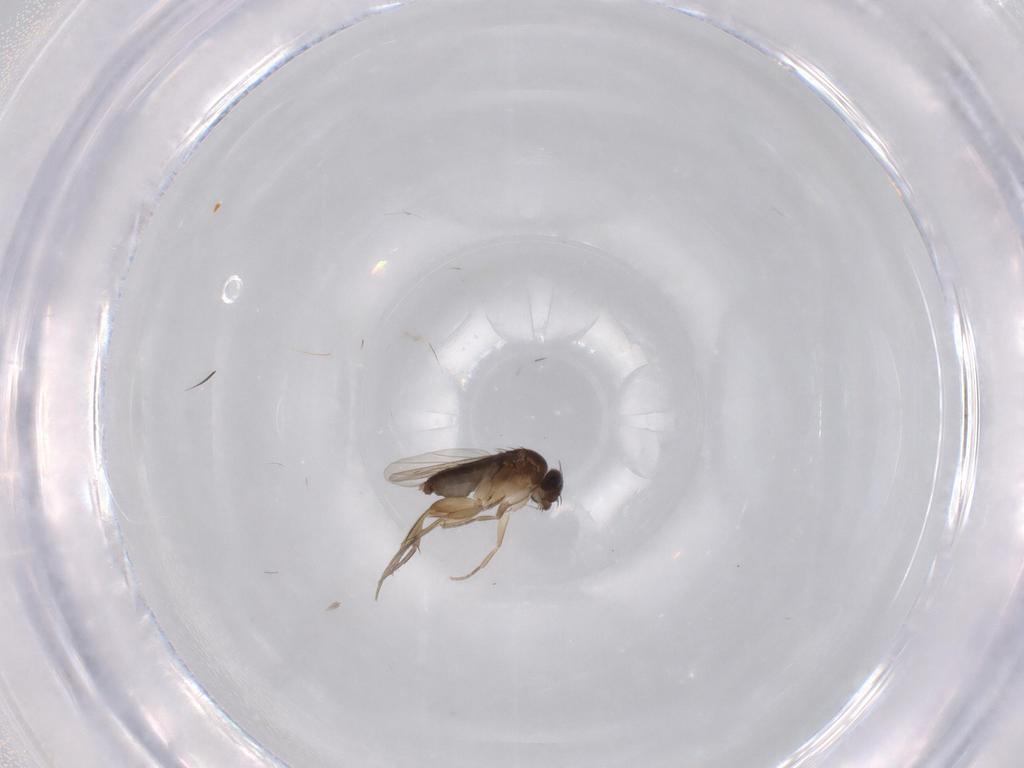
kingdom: Animalia
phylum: Arthropoda
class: Insecta
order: Diptera
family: Phoridae
